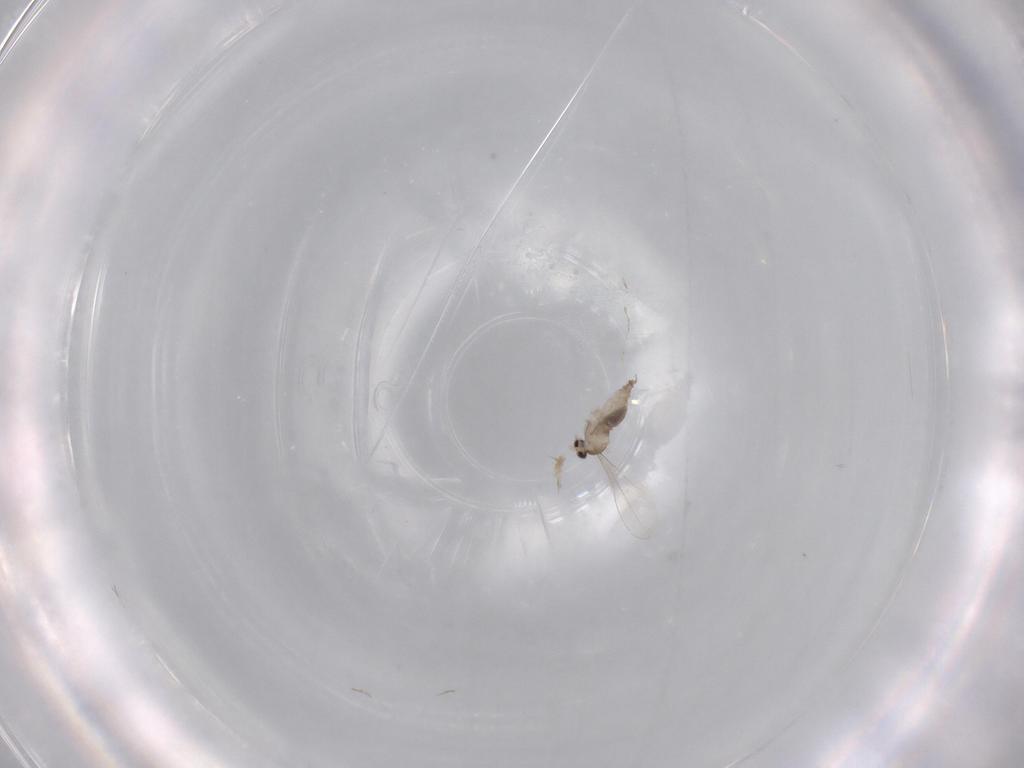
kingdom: Animalia
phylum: Arthropoda
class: Insecta
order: Diptera
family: Cecidomyiidae
